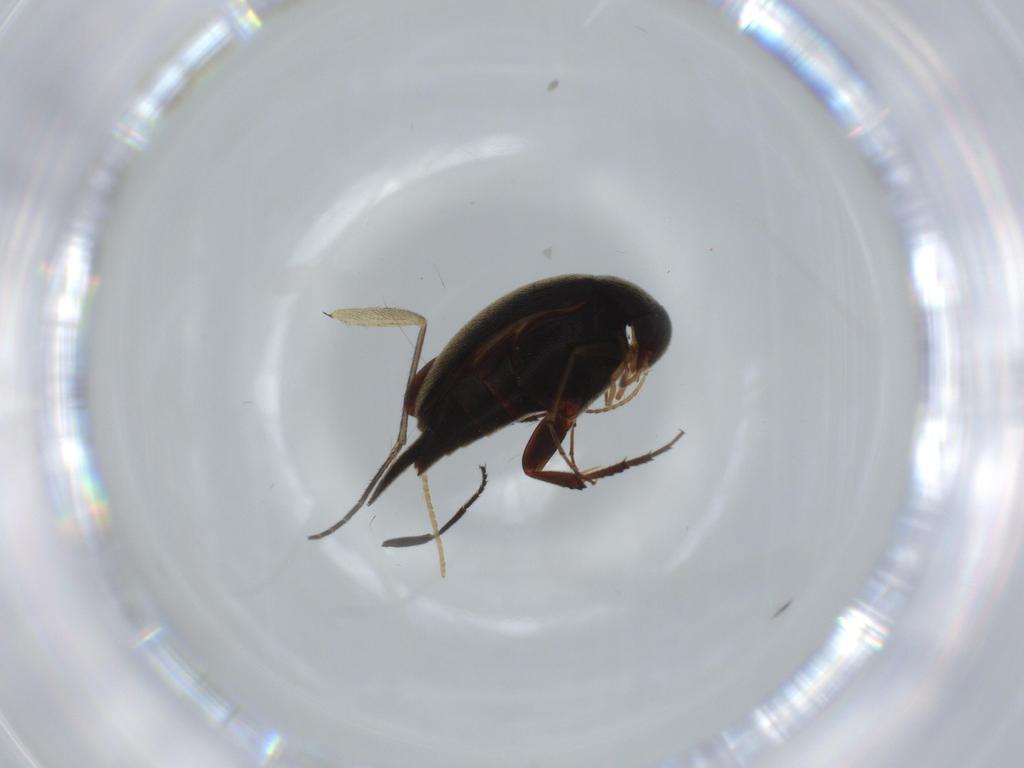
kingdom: Animalia
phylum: Arthropoda
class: Insecta
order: Coleoptera
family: Mordellidae
